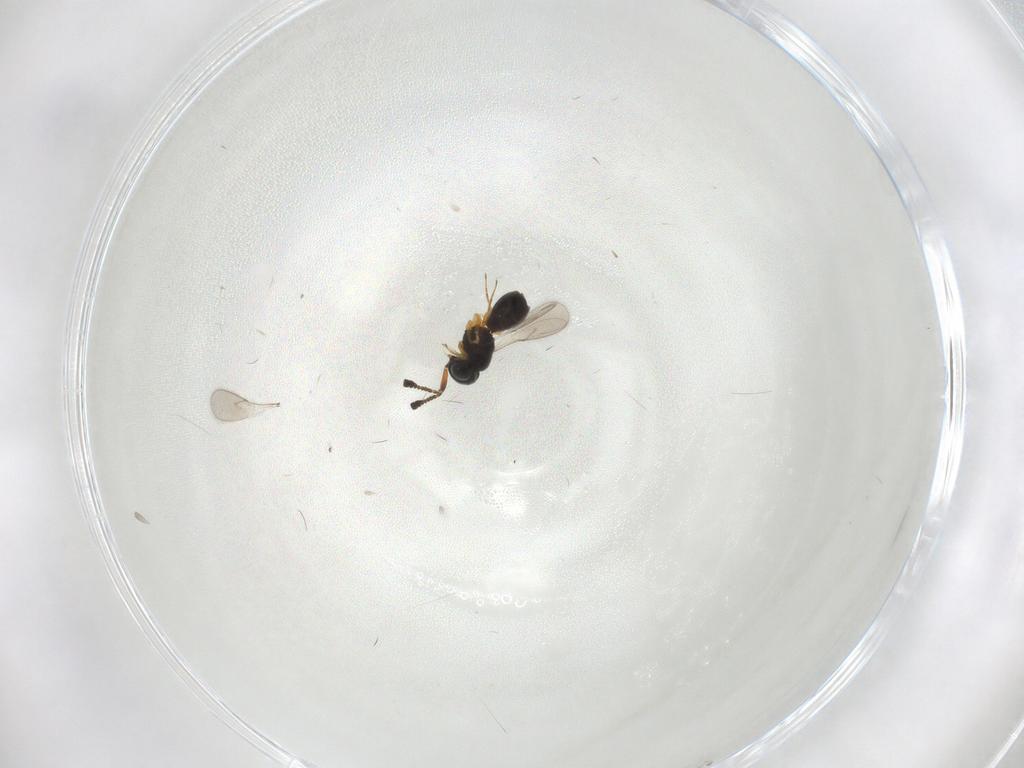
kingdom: Animalia
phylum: Arthropoda
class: Insecta
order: Hymenoptera
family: Scelionidae
